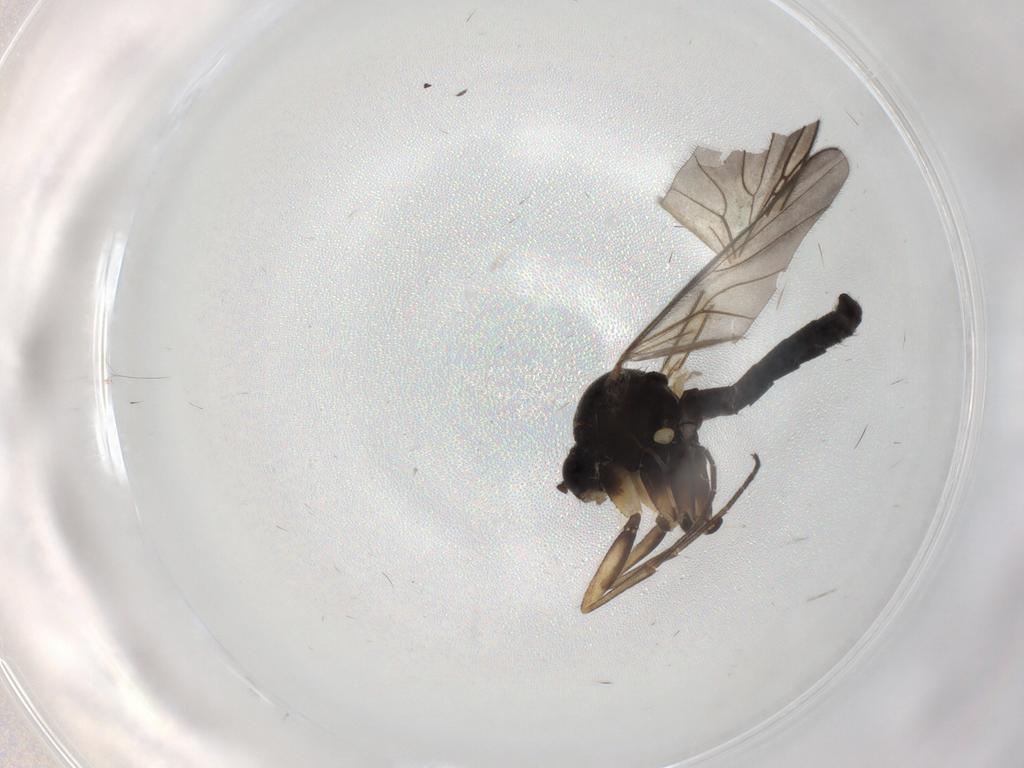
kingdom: Animalia
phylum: Arthropoda
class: Insecta
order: Diptera
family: Mycetophilidae
